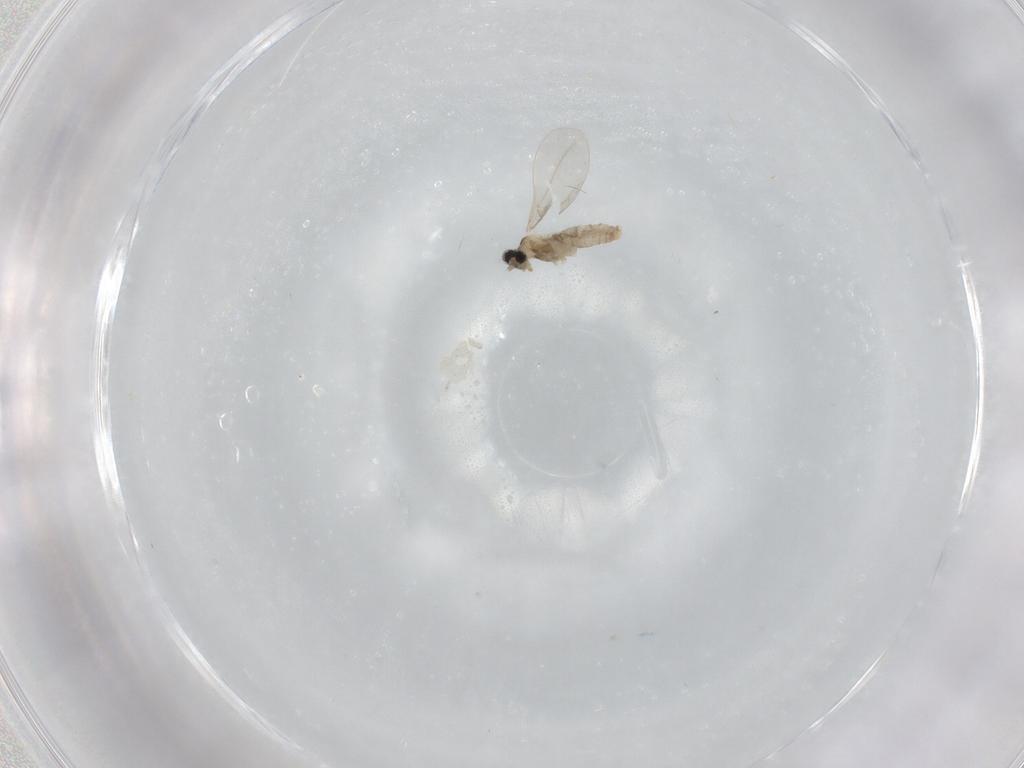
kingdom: Animalia
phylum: Arthropoda
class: Insecta
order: Diptera
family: Cecidomyiidae
